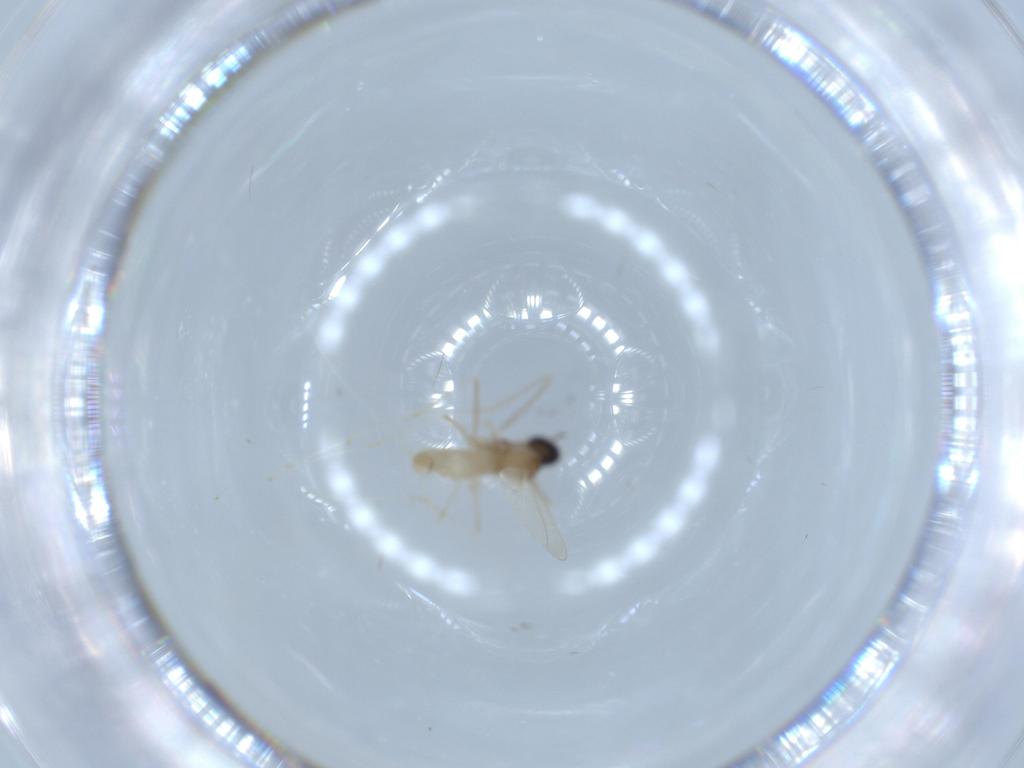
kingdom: Animalia
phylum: Arthropoda
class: Insecta
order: Diptera
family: Cecidomyiidae
